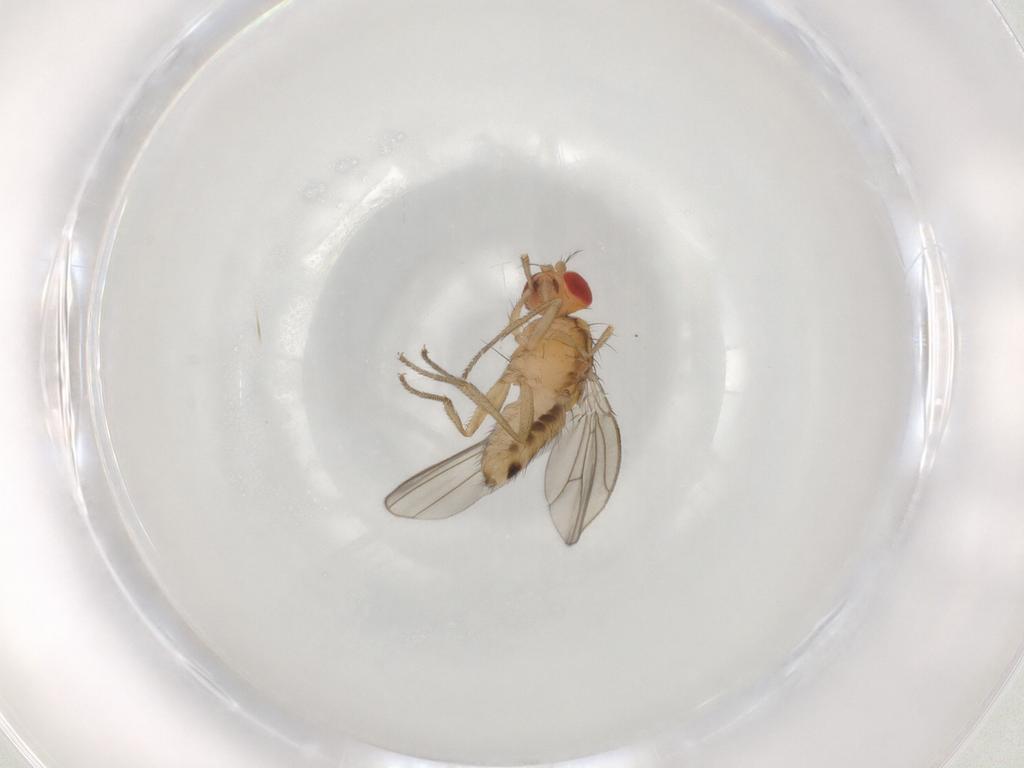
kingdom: Animalia
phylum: Arthropoda
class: Insecta
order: Diptera
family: Drosophilidae
